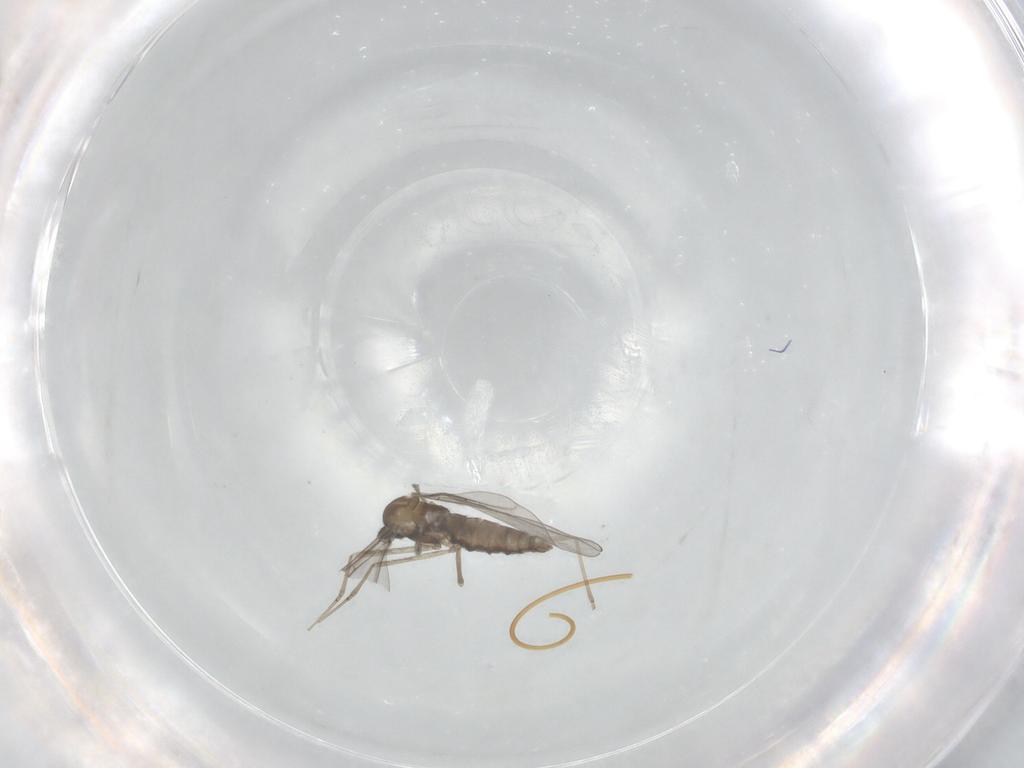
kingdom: Animalia
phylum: Arthropoda
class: Insecta
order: Diptera
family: Cecidomyiidae
